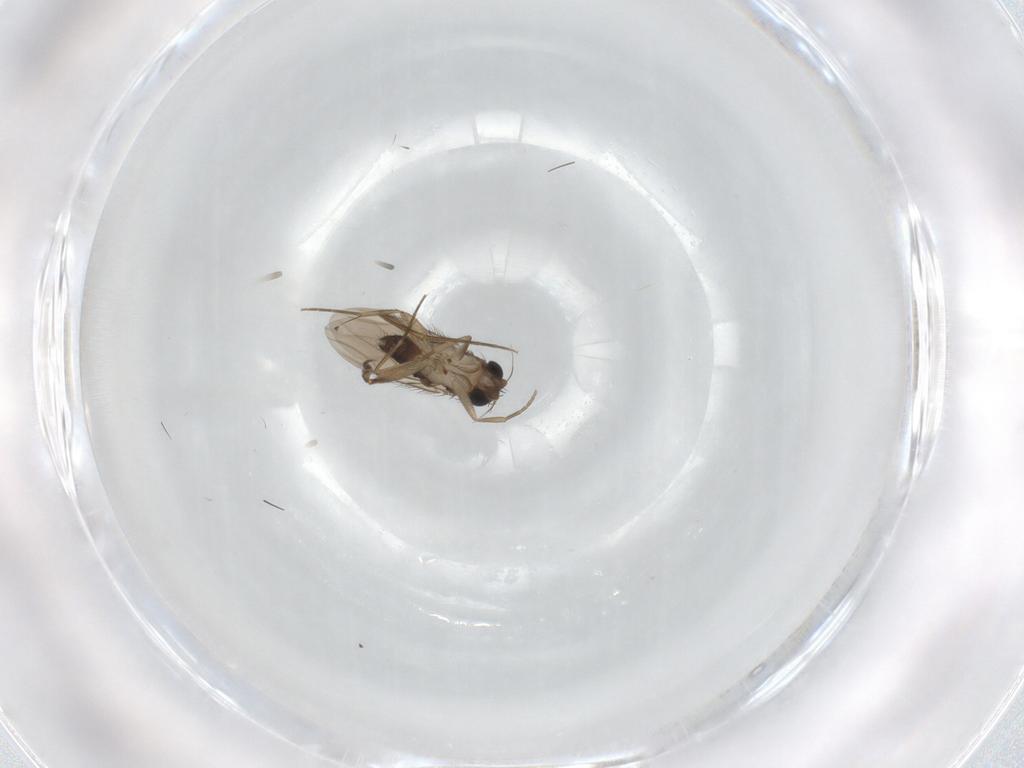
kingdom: Animalia
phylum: Arthropoda
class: Insecta
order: Diptera
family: Phoridae
